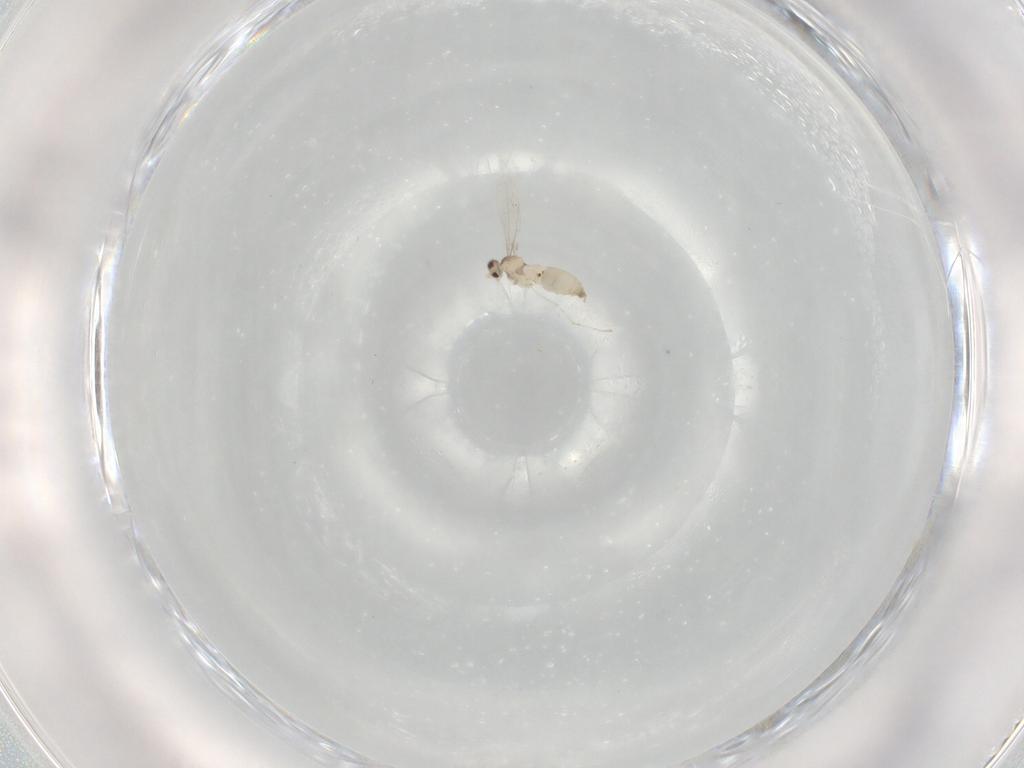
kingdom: Animalia
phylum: Arthropoda
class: Insecta
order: Diptera
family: Cecidomyiidae
